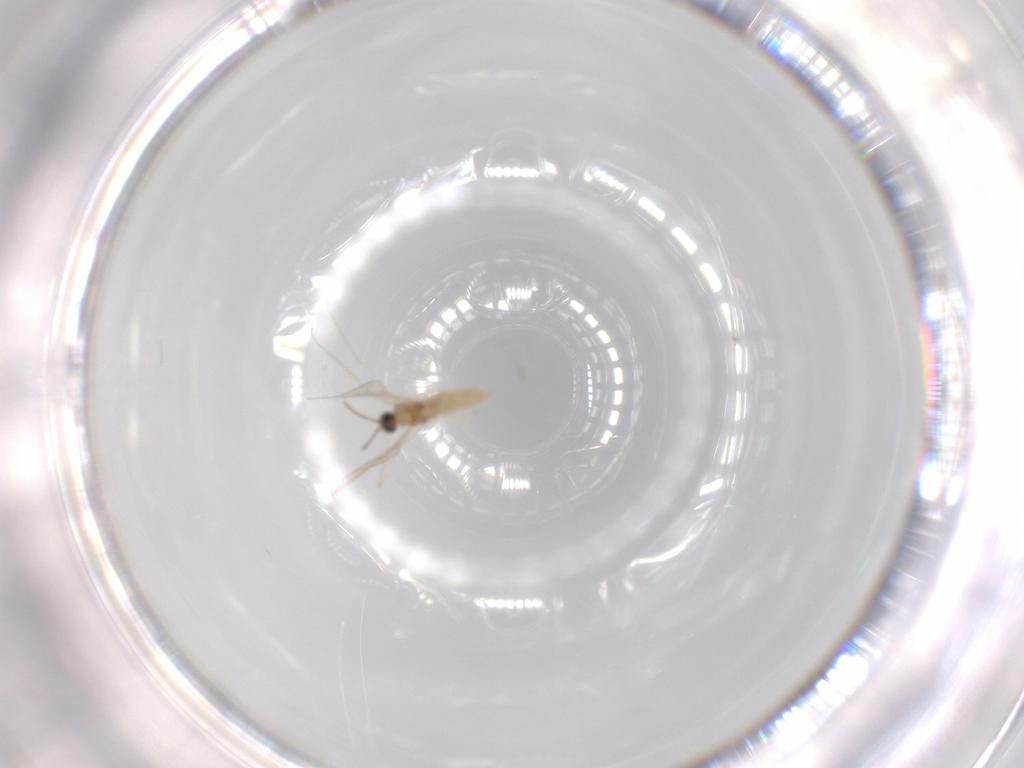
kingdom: Animalia
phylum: Arthropoda
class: Insecta
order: Diptera
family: Cecidomyiidae
